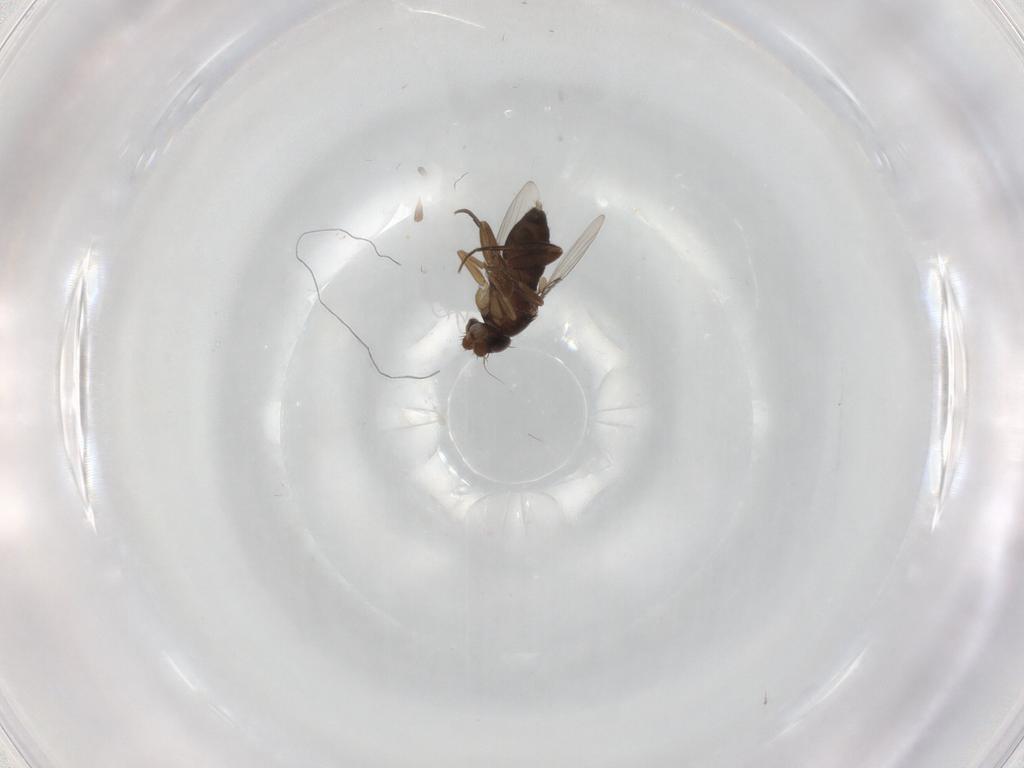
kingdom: Animalia
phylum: Arthropoda
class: Insecta
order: Diptera
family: Phoridae
